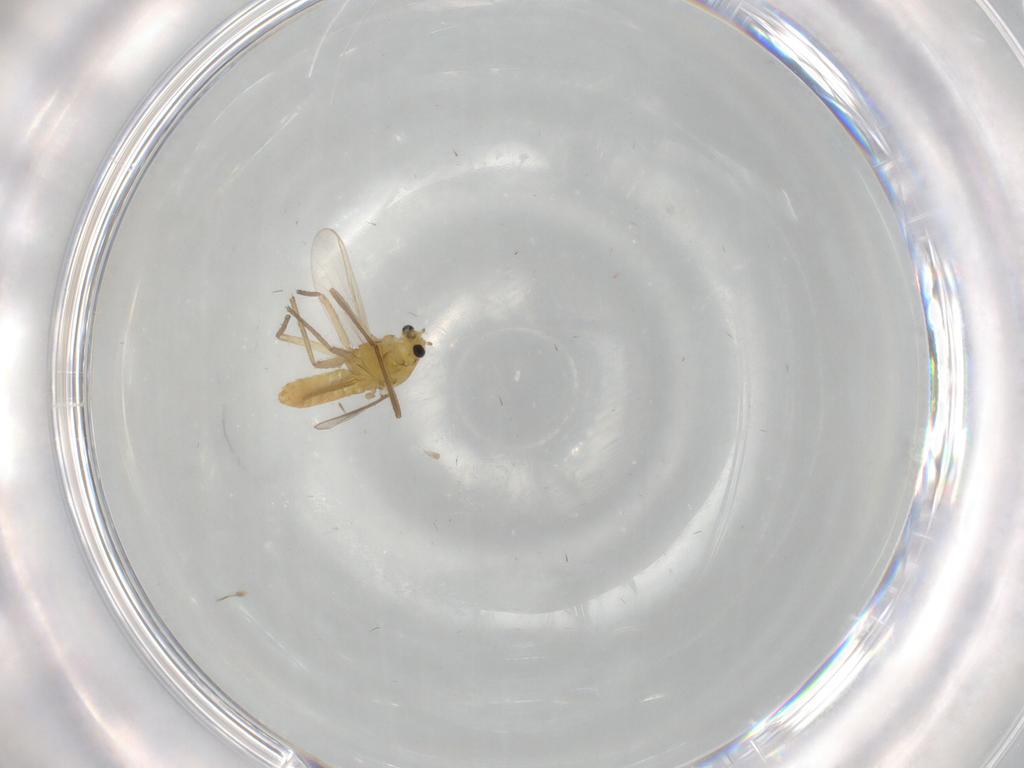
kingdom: Animalia
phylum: Arthropoda
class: Insecta
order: Diptera
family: Chironomidae
